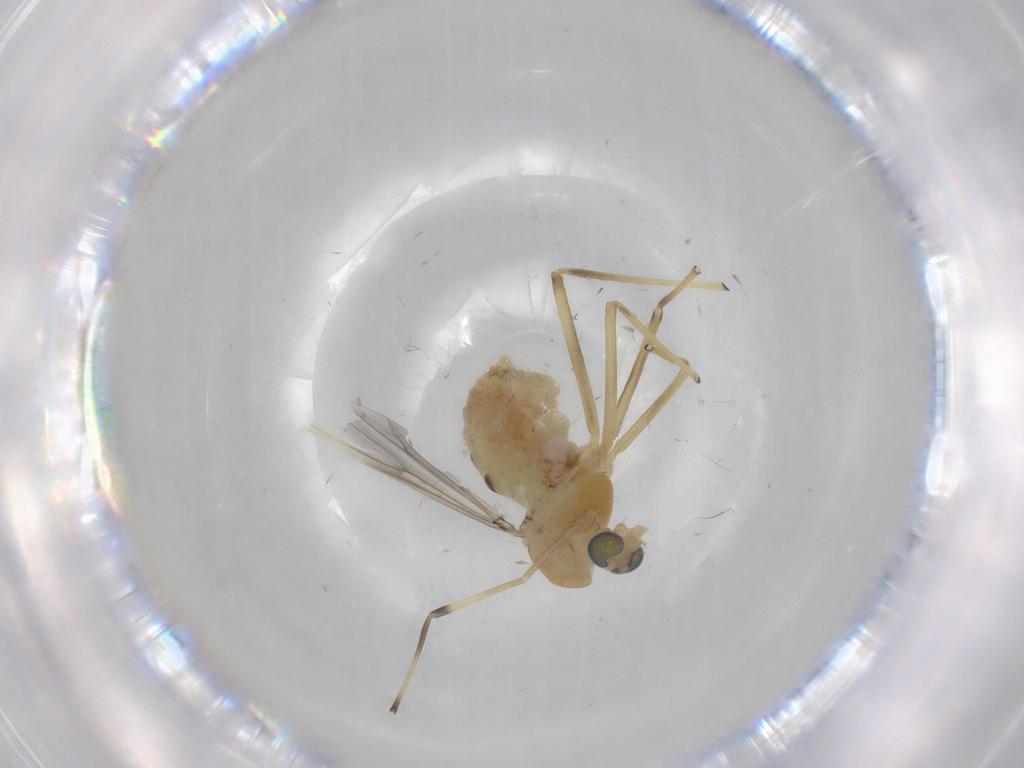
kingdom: Animalia
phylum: Arthropoda
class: Insecta
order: Diptera
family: Chironomidae
